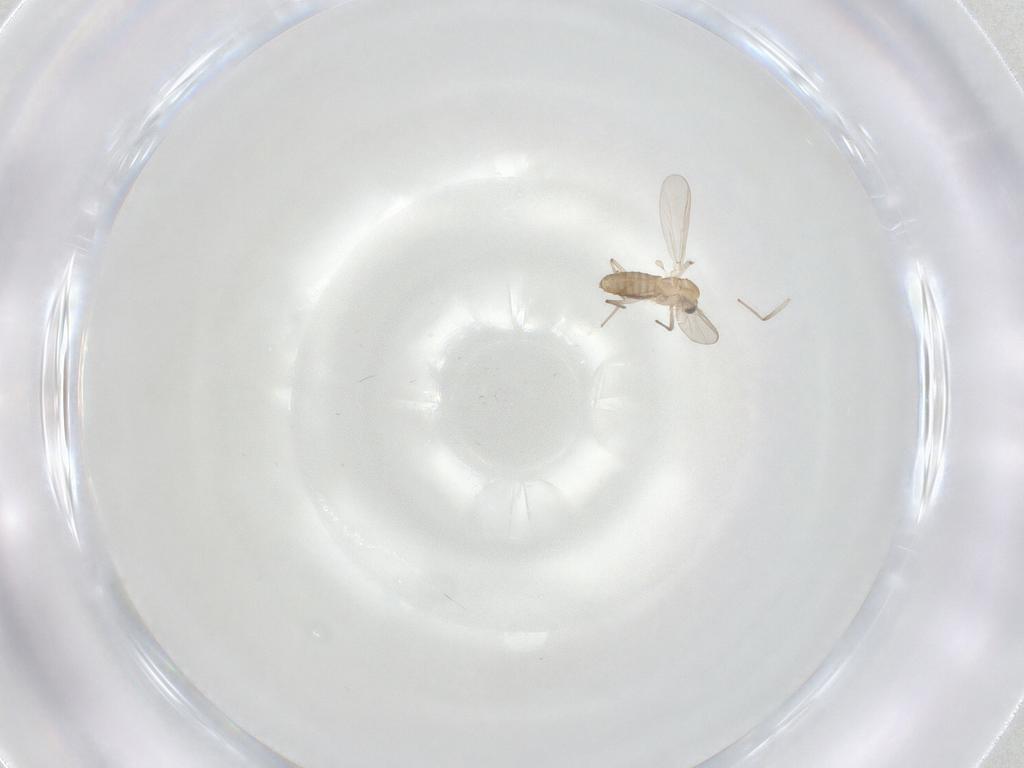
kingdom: Animalia
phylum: Arthropoda
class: Insecta
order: Diptera
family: Chironomidae
